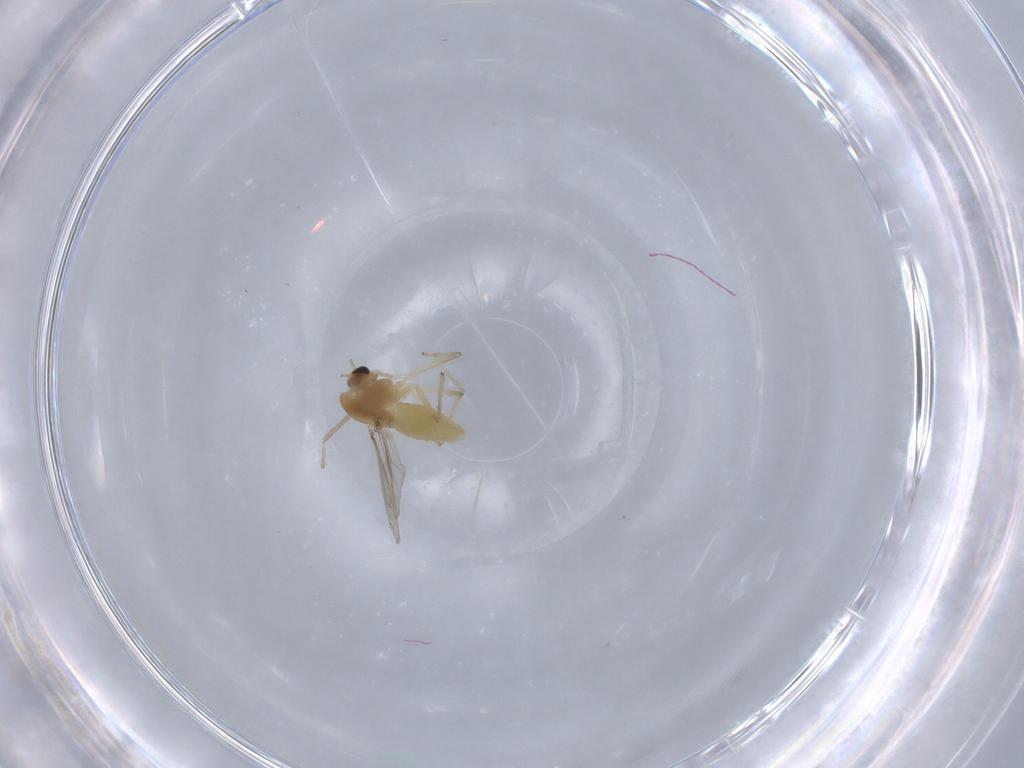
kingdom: Animalia
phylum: Arthropoda
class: Insecta
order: Diptera
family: Chironomidae
